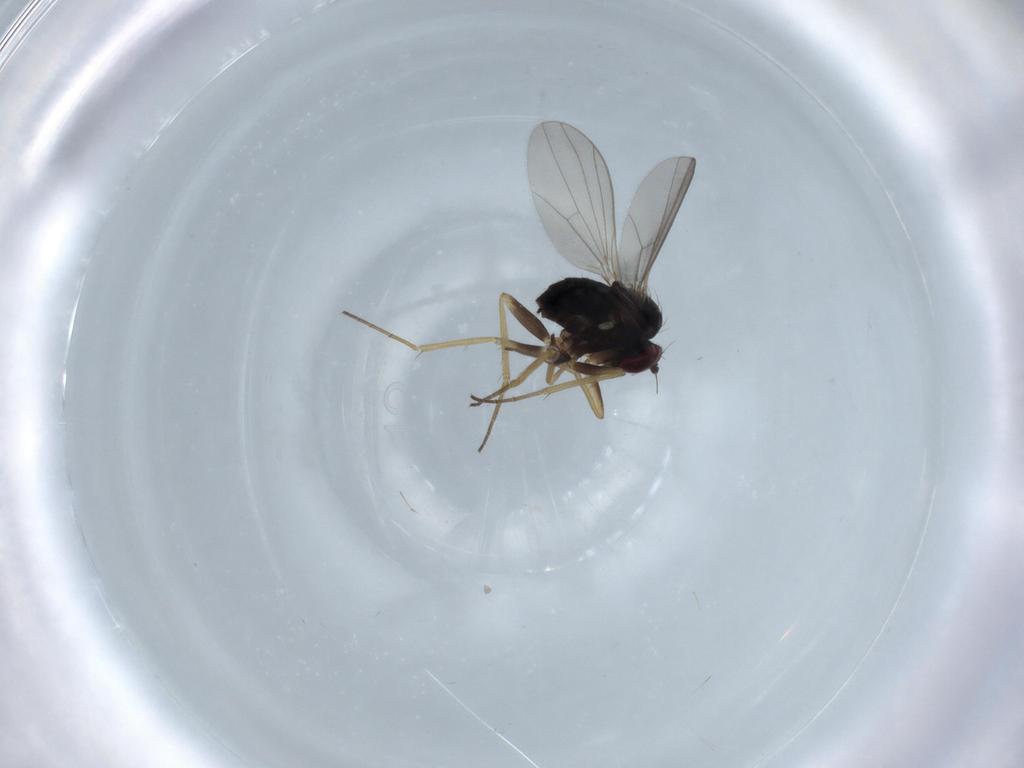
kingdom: Animalia
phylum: Arthropoda
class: Insecta
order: Diptera
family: Dolichopodidae
